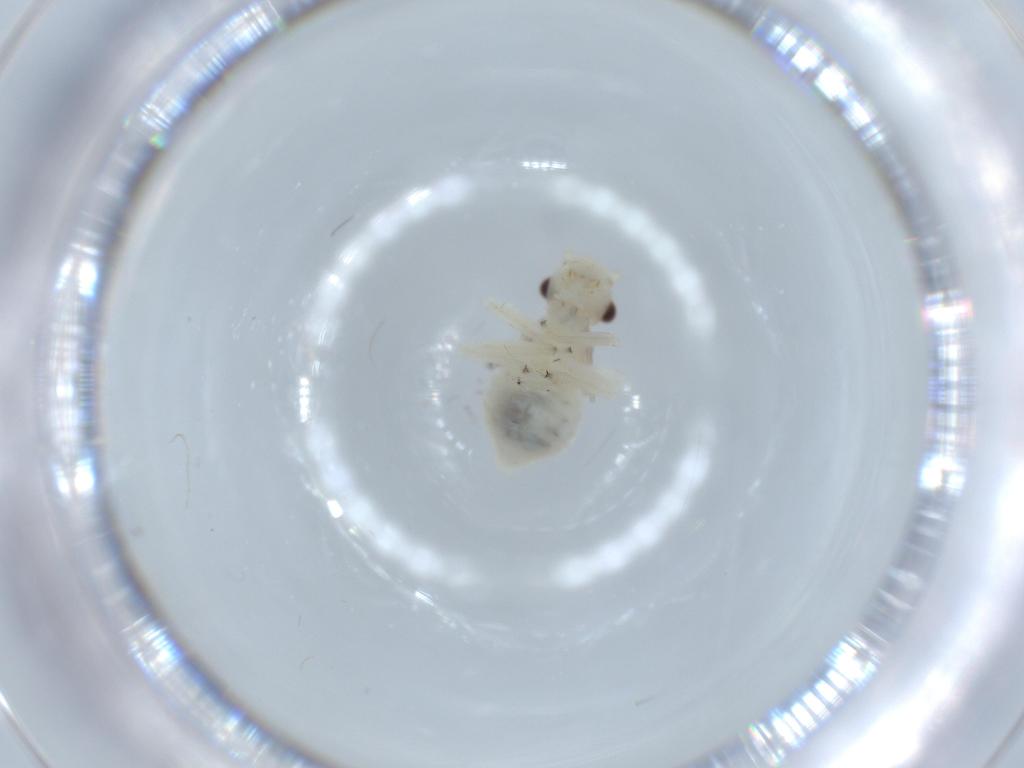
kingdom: Animalia
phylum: Arthropoda
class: Insecta
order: Psocodea
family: Amphipsocidae
